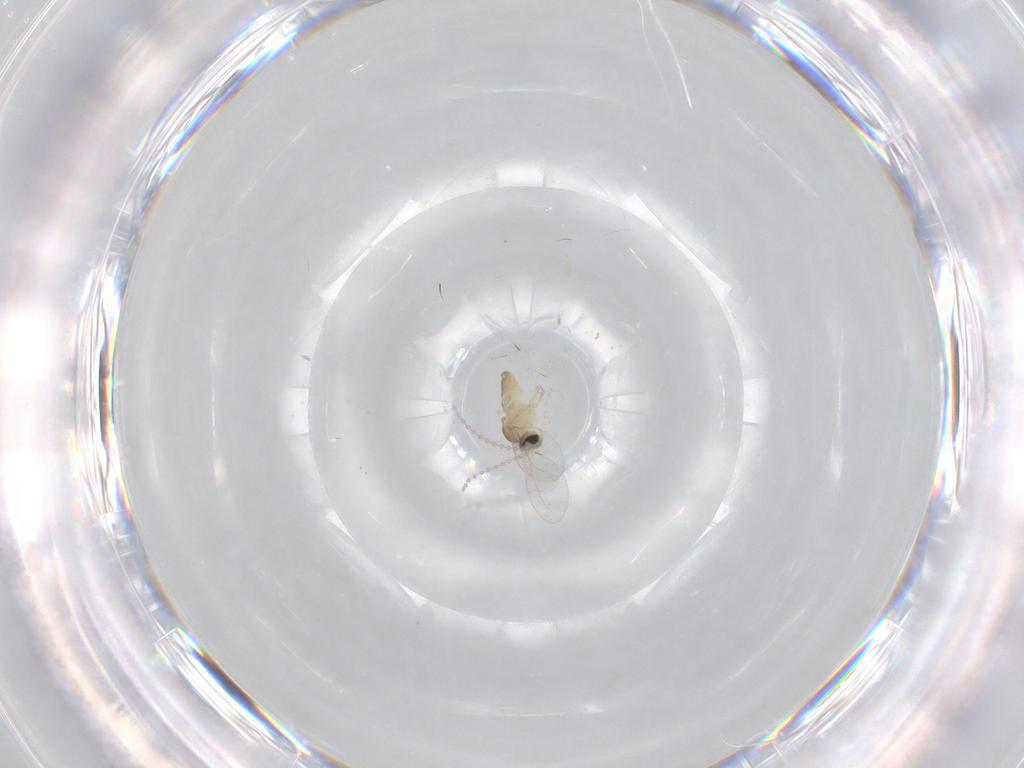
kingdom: Animalia
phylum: Arthropoda
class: Insecta
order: Diptera
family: Cecidomyiidae
